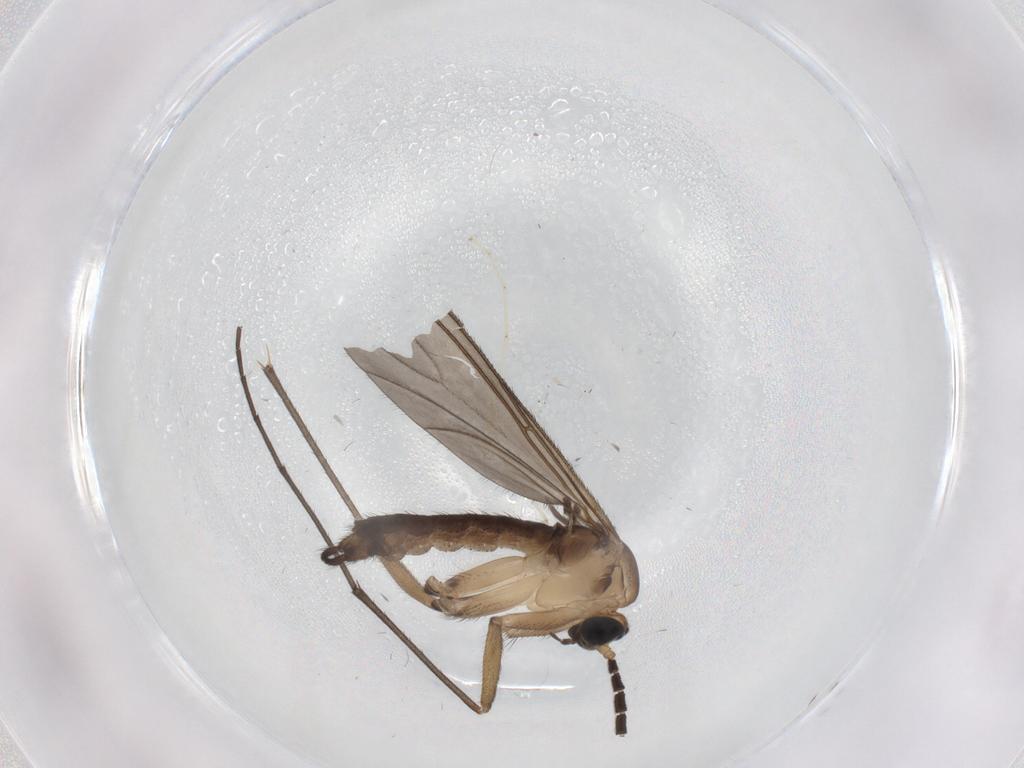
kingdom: Animalia
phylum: Arthropoda
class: Insecta
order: Diptera
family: Sciaridae
